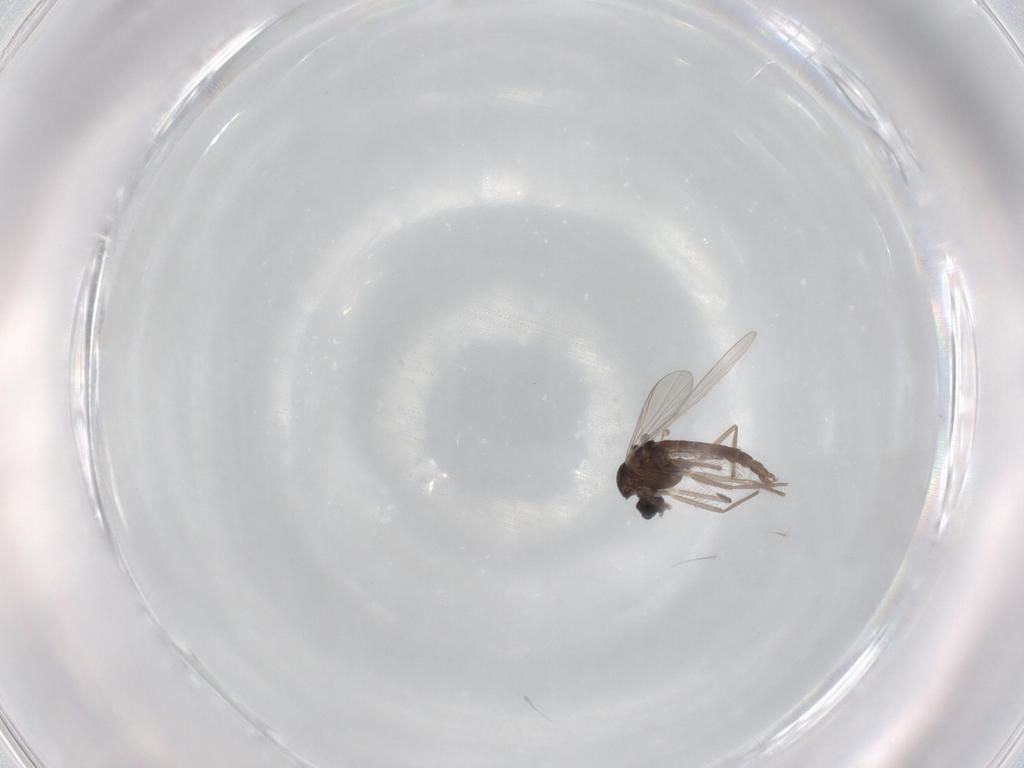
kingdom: Animalia
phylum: Arthropoda
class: Insecta
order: Diptera
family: Chironomidae
